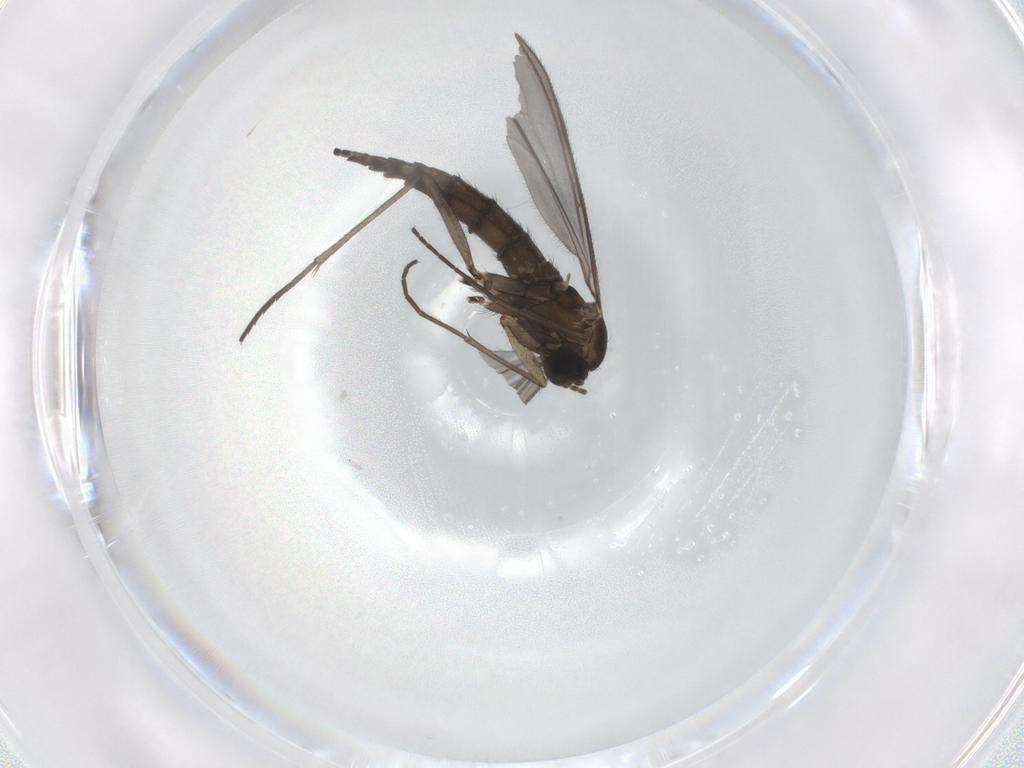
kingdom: Animalia
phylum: Arthropoda
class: Insecta
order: Diptera
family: Sciaridae
